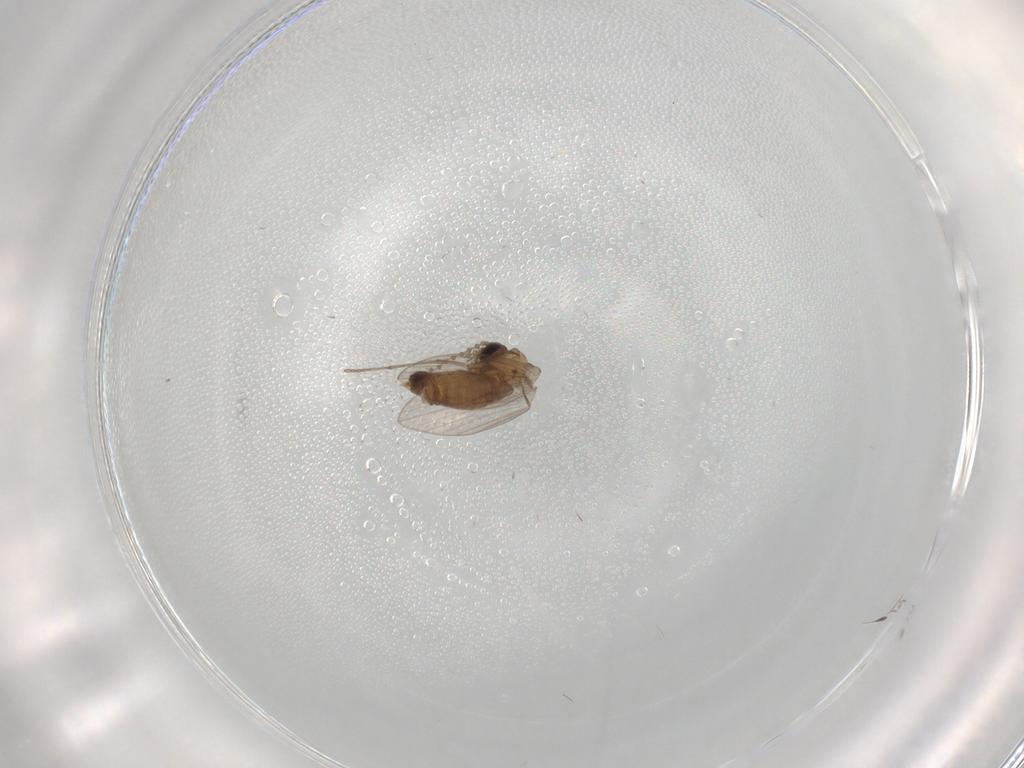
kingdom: Animalia
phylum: Arthropoda
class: Insecta
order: Diptera
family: Psychodidae
